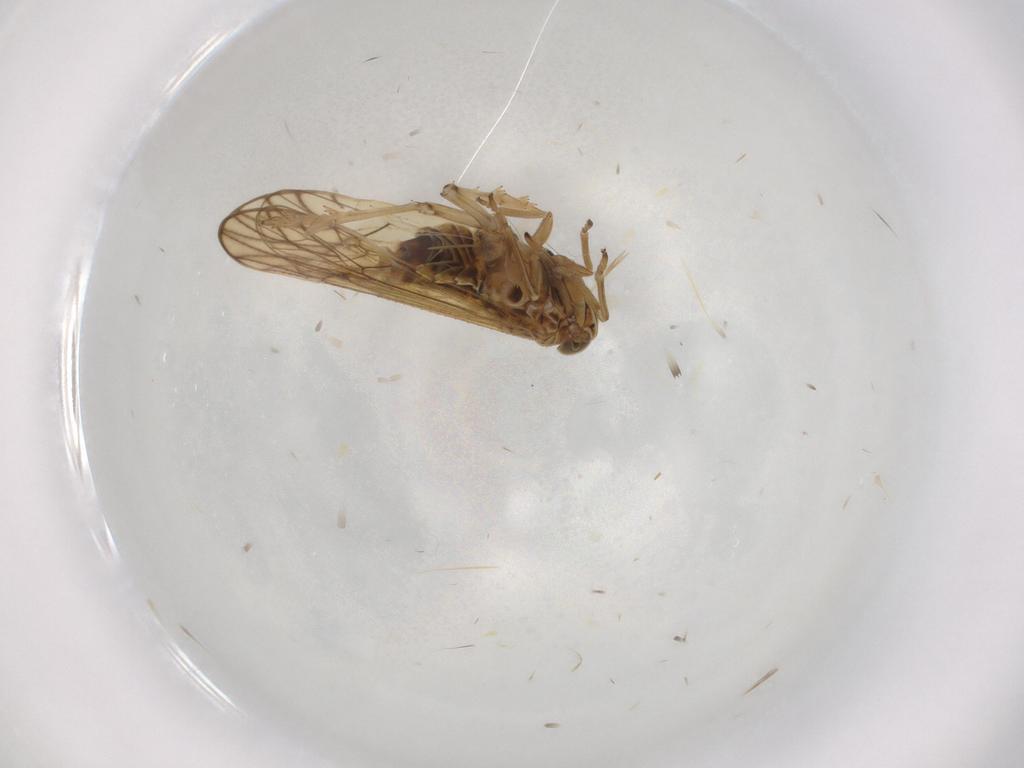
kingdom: Animalia
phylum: Arthropoda
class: Insecta
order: Hemiptera
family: Delphacidae
